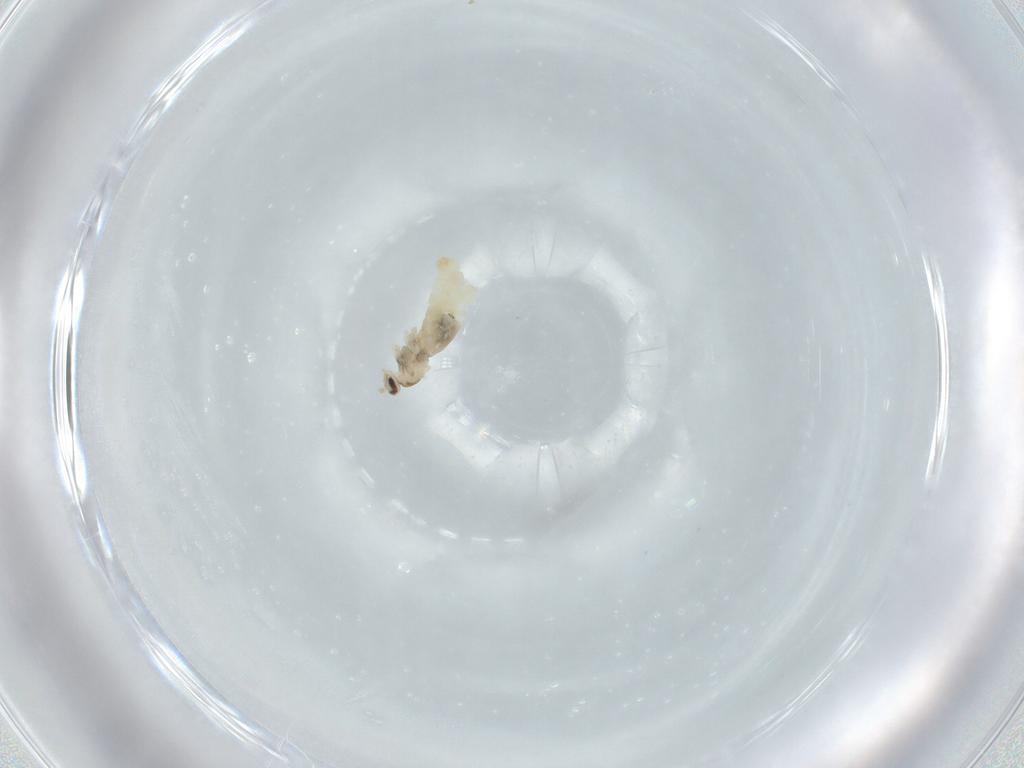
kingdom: Animalia
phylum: Arthropoda
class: Insecta
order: Diptera
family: Cecidomyiidae
